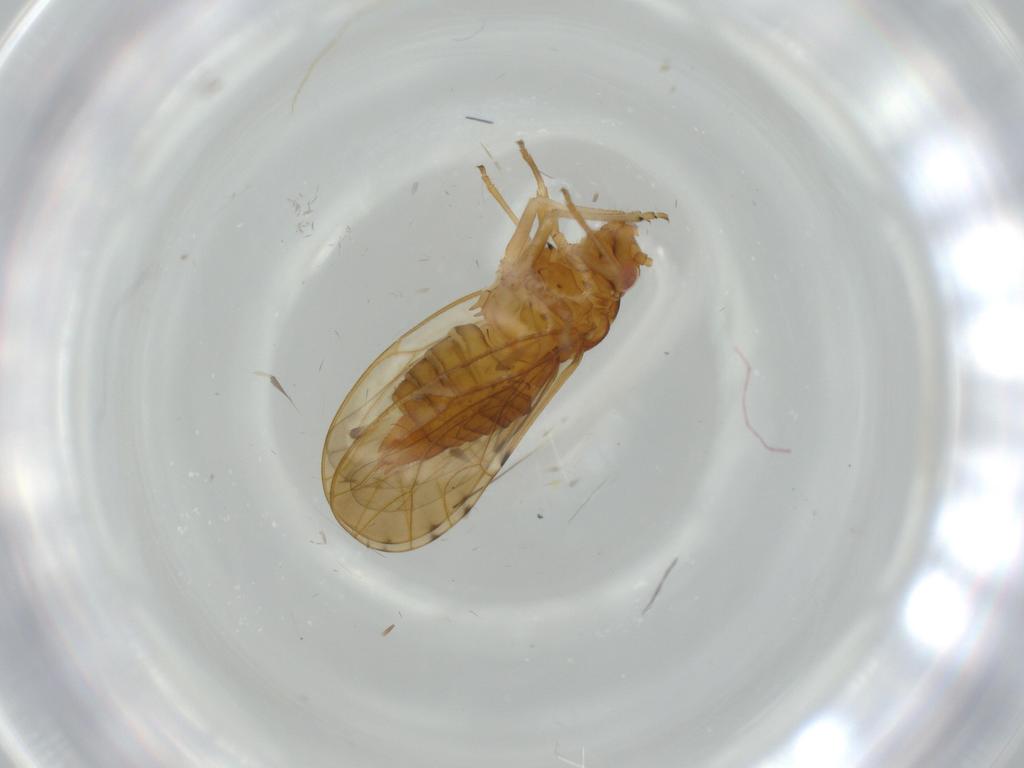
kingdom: Animalia
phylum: Arthropoda
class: Insecta
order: Hemiptera
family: Psylloidea_incertae_sedis
